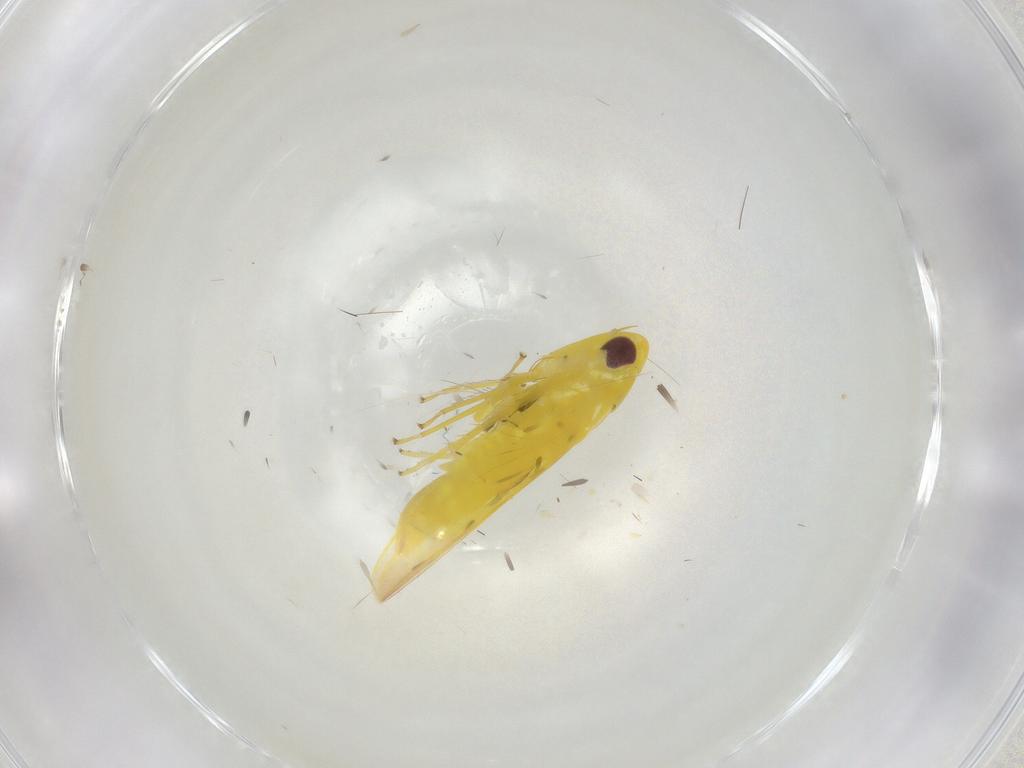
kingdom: Animalia
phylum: Arthropoda
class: Insecta
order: Hemiptera
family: Cicadellidae
